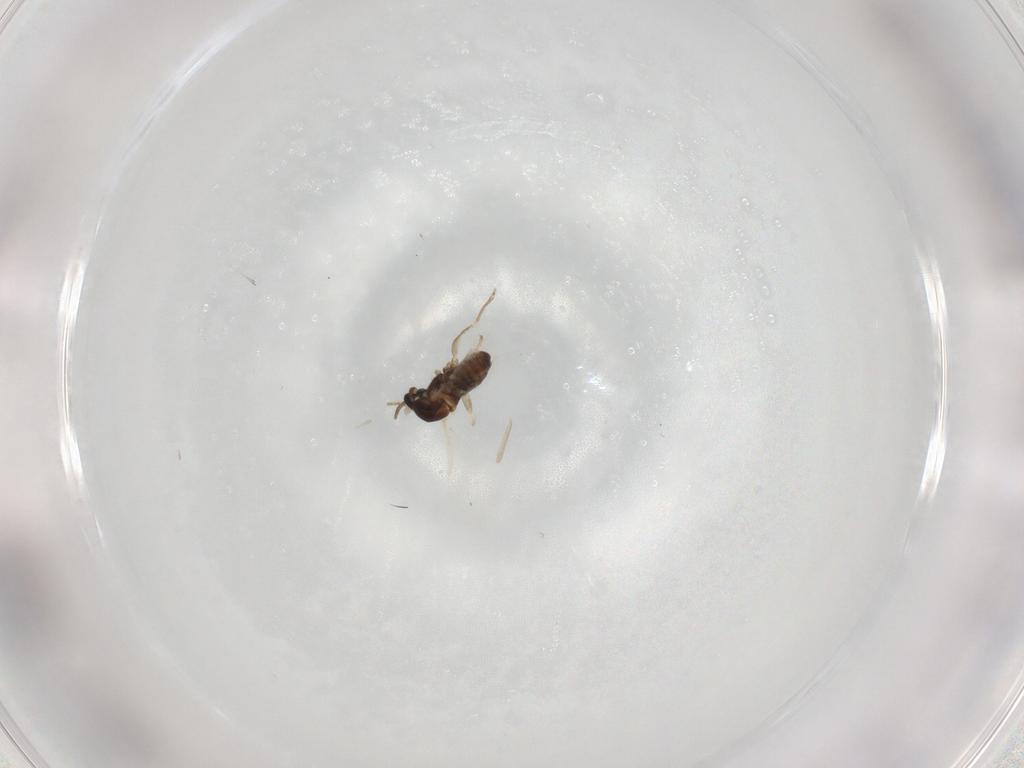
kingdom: Animalia
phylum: Arthropoda
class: Insecta
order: Diptera
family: Cecidomyiidae
